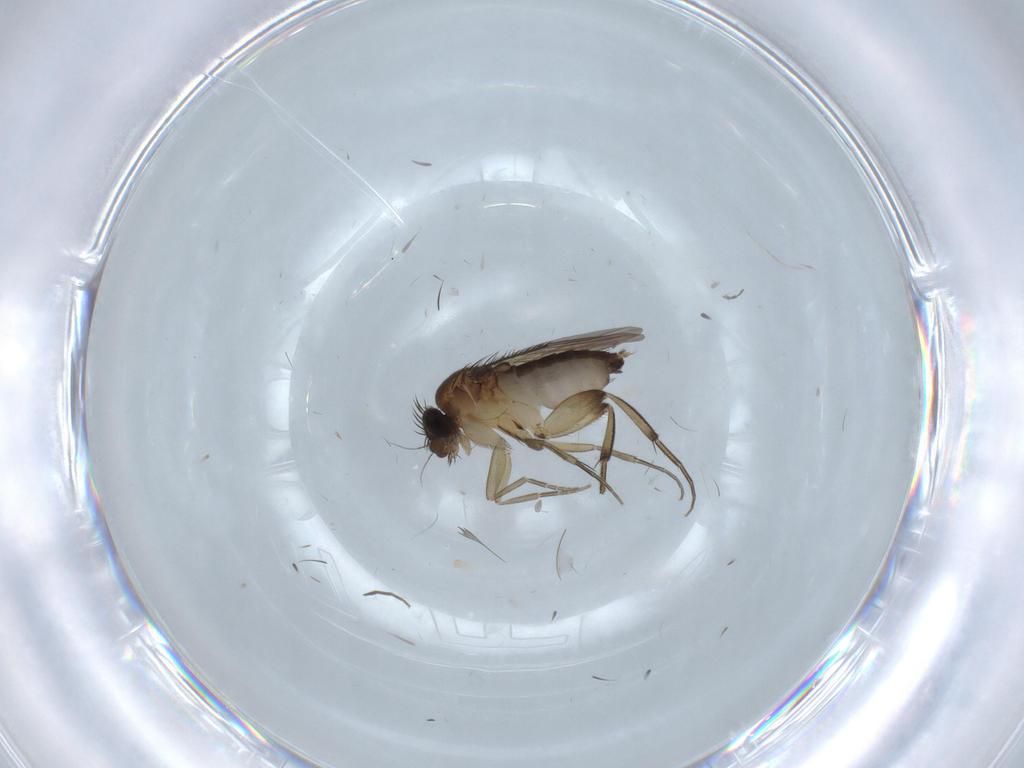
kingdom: Animalia
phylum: Arthropoda
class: Insecta
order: Diptera
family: Phoridae
